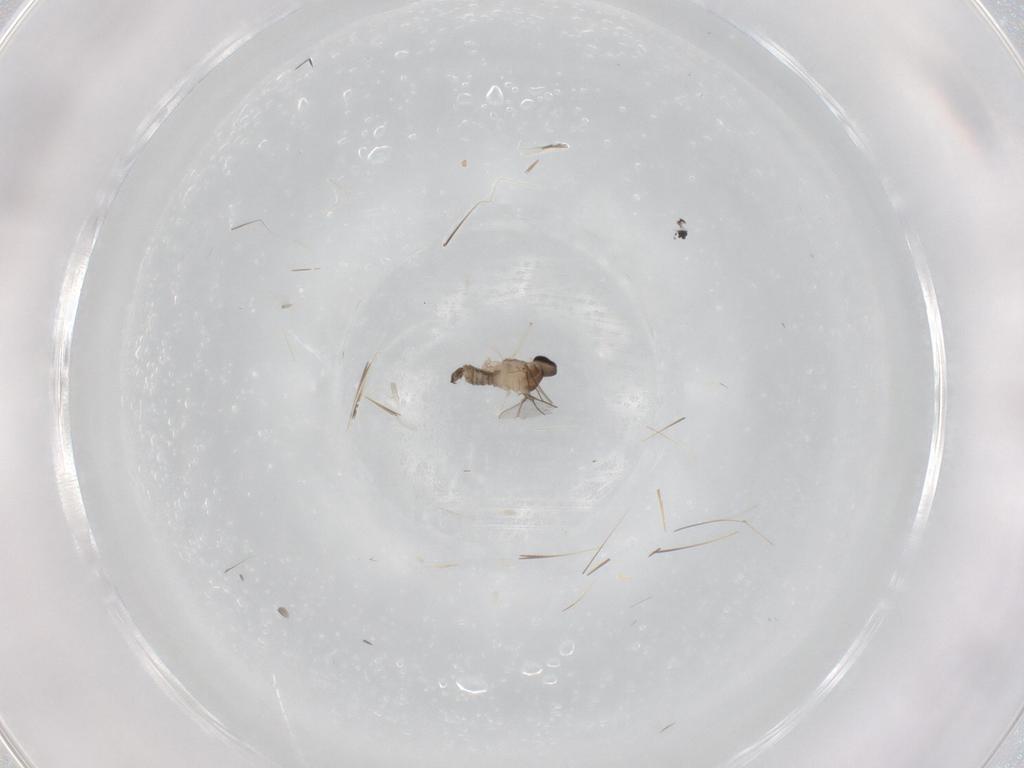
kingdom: Animalia
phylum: Arthropoda
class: Insecta
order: Diptera
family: Cecidomyiidae
